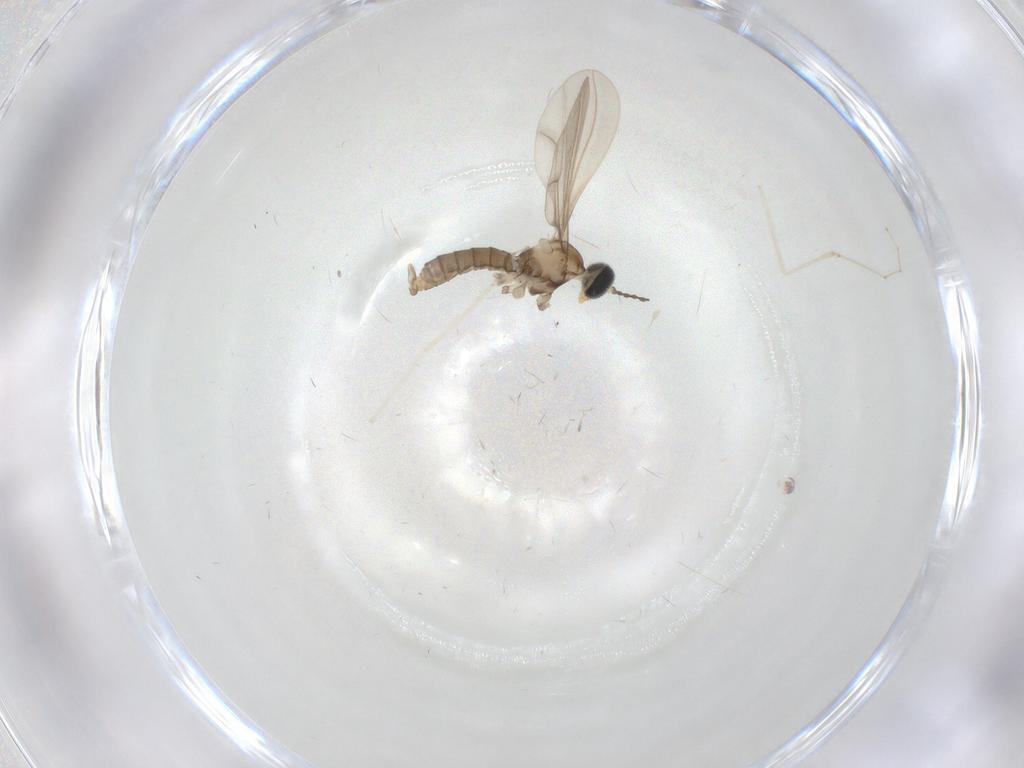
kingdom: Animalia
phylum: Arthropoda
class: Insecta
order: Diptera
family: Cecidomyiidae
